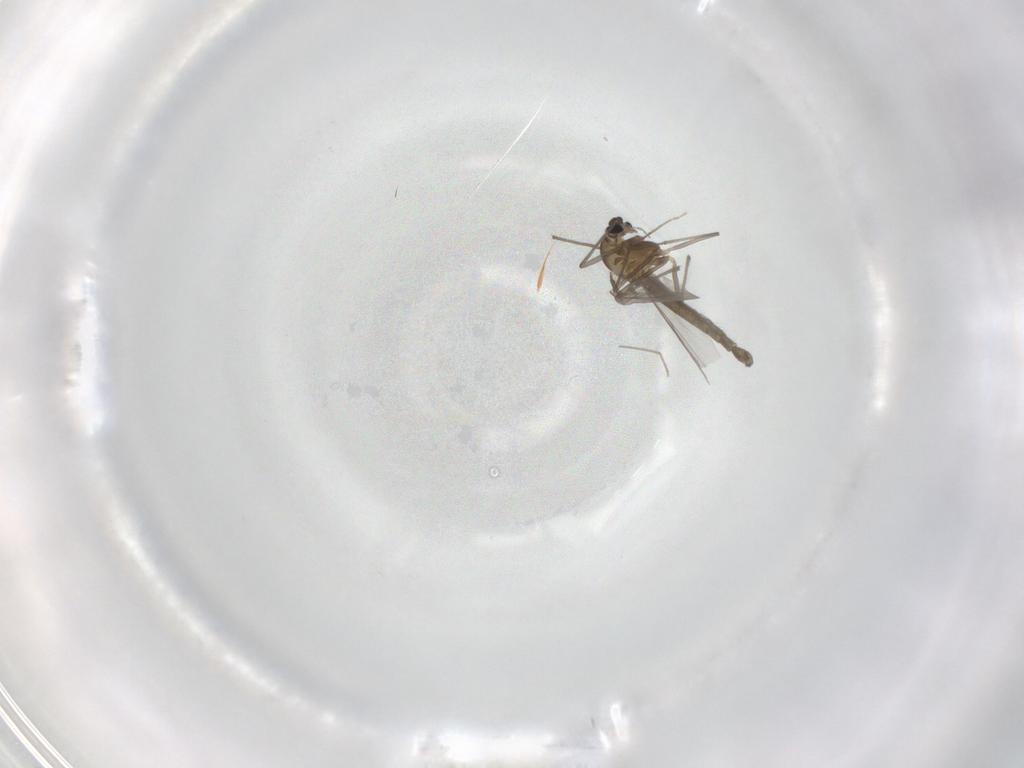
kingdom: Animalia
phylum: Arthropoda
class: Insecta
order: Diptera
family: Chironomidae
